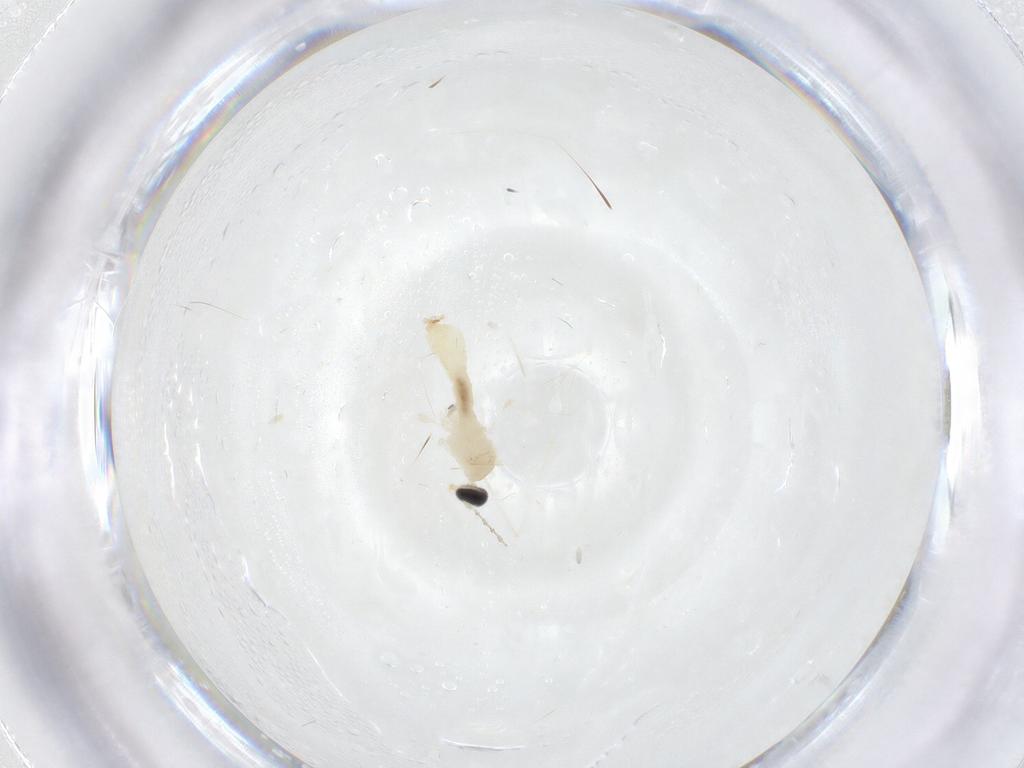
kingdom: Animalia
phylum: Arthropoda
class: Insecta
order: Diptera
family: Cecidomyiidae
